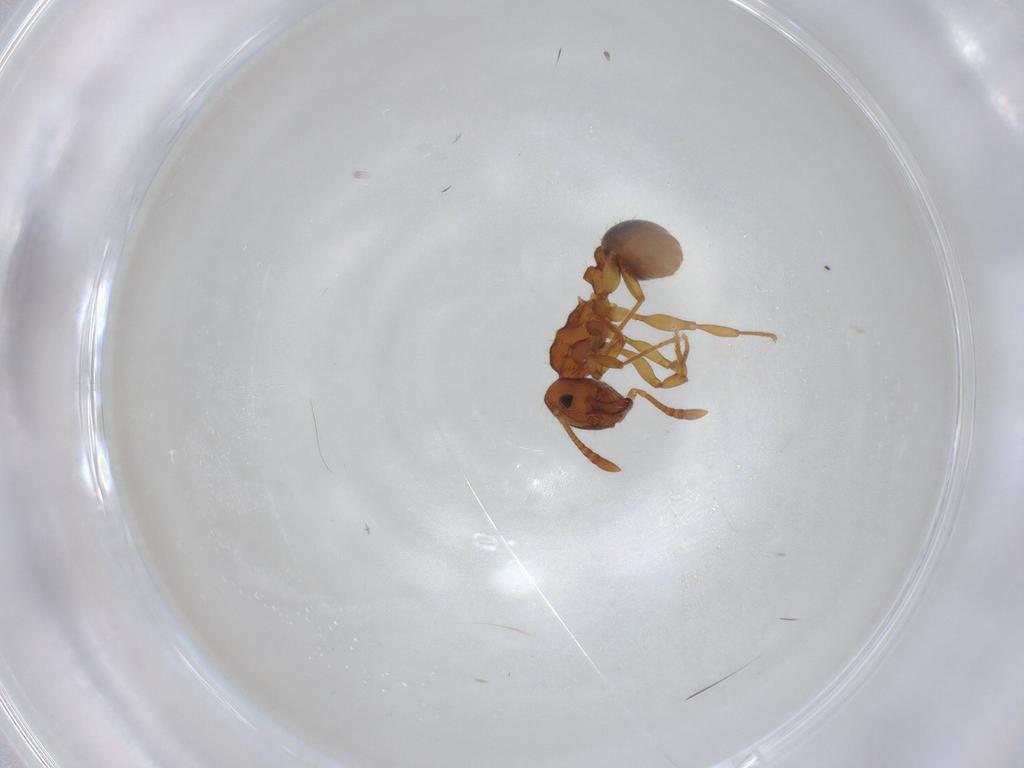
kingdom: Animalia
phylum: Arthropoda
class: Insecta
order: Hymenoptera
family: Formicidae
